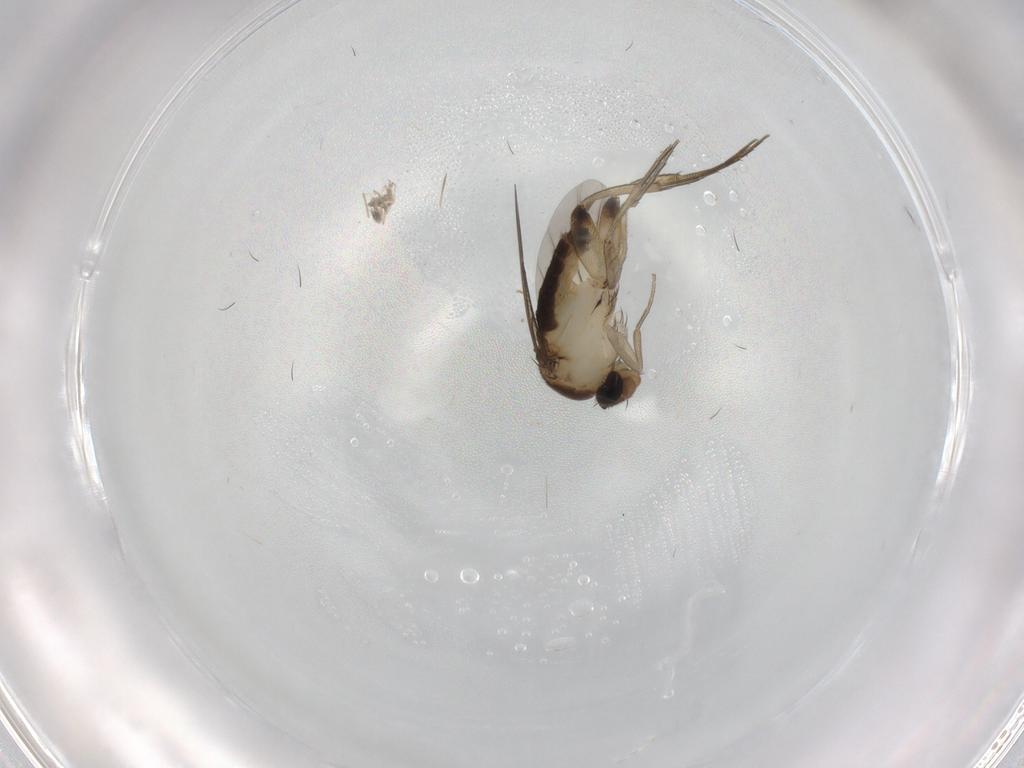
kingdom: Animalia
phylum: Arthropoda
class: Insecta
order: Diptera
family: Phoridae
